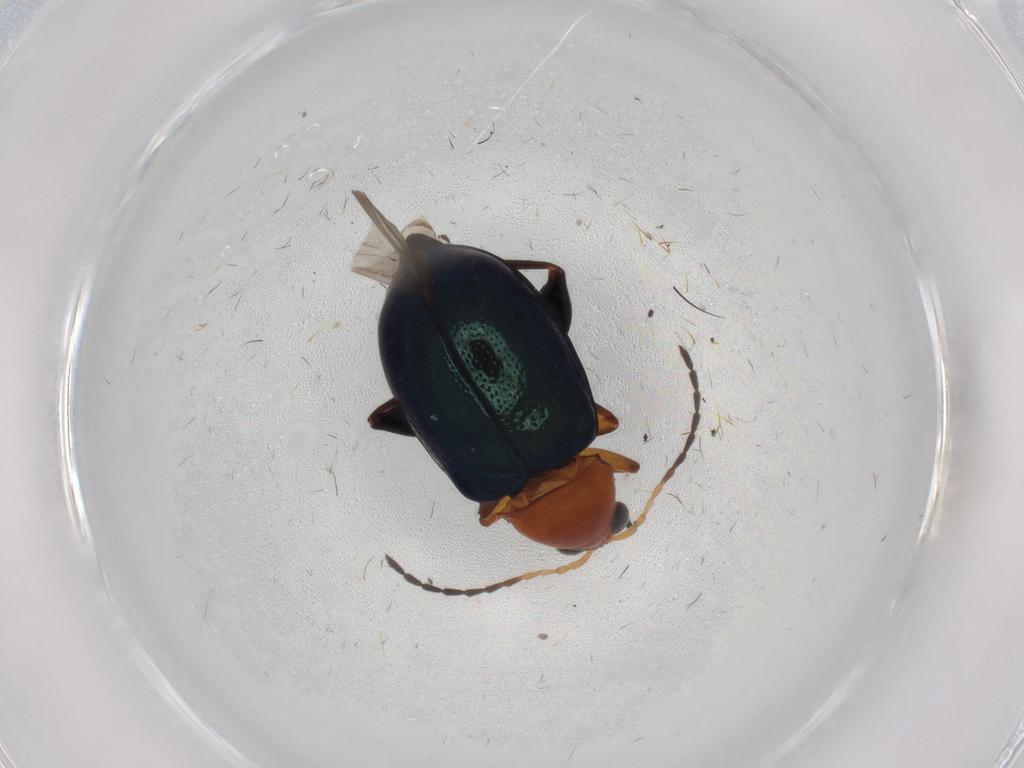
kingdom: Animalia
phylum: Arthropoda
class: Insecta
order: Coleoptera
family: Chrysomelidae
